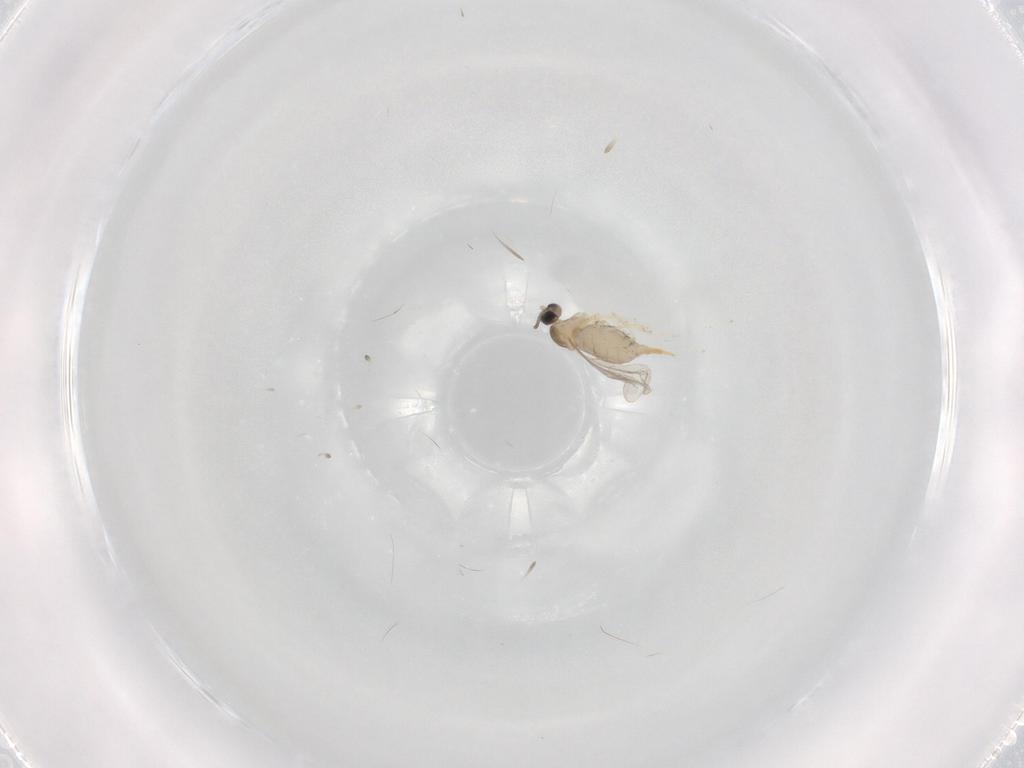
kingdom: Animalia
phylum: Arthropoda
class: Insecta
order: Diptera
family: Cecidomyiidae
